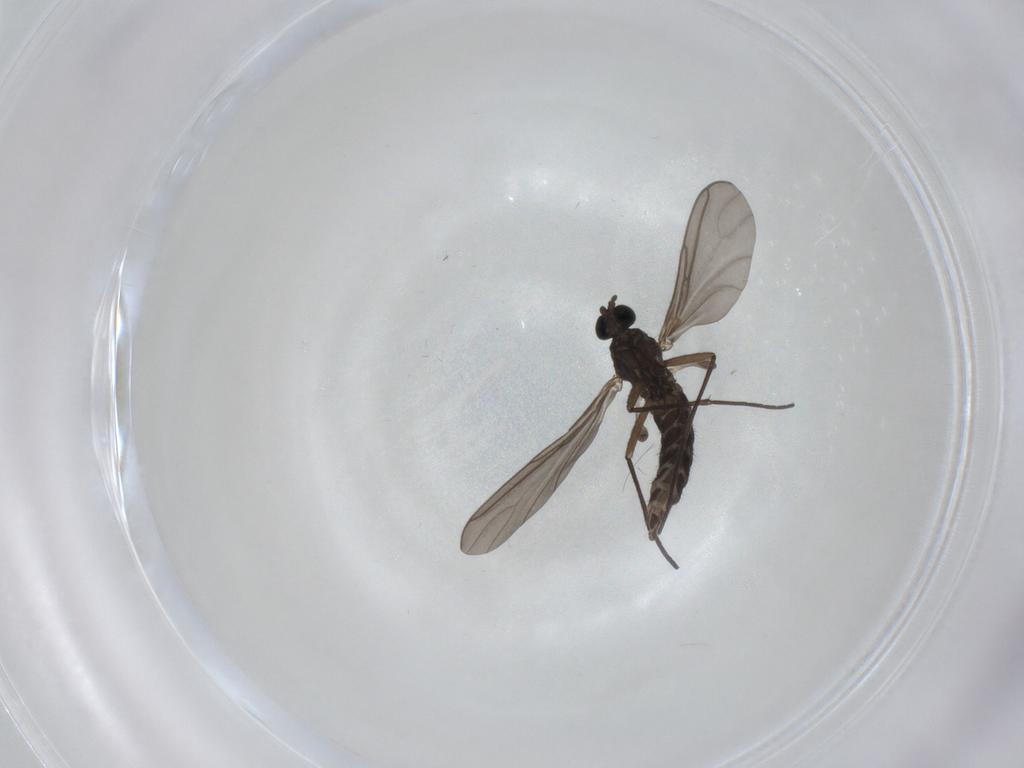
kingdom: Animalia
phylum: Arthropoda
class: Insecta
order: Diptera
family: Sciaridae
